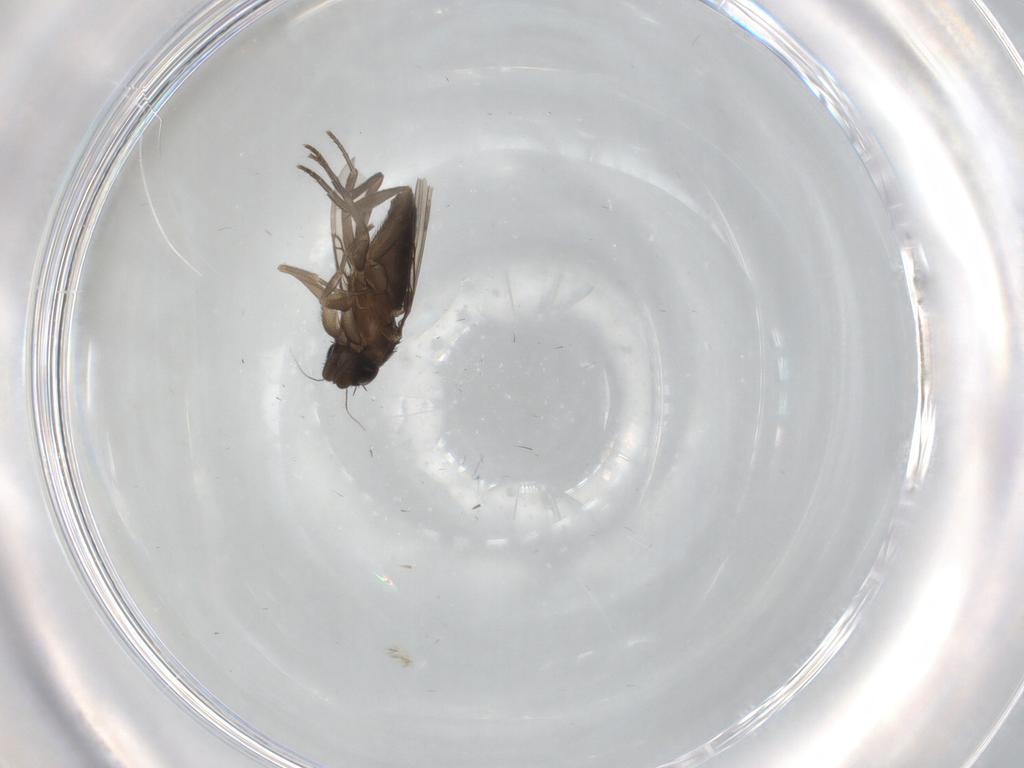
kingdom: Animalia
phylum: Arthropoda
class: Insecta
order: Diptera
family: Phoridae
